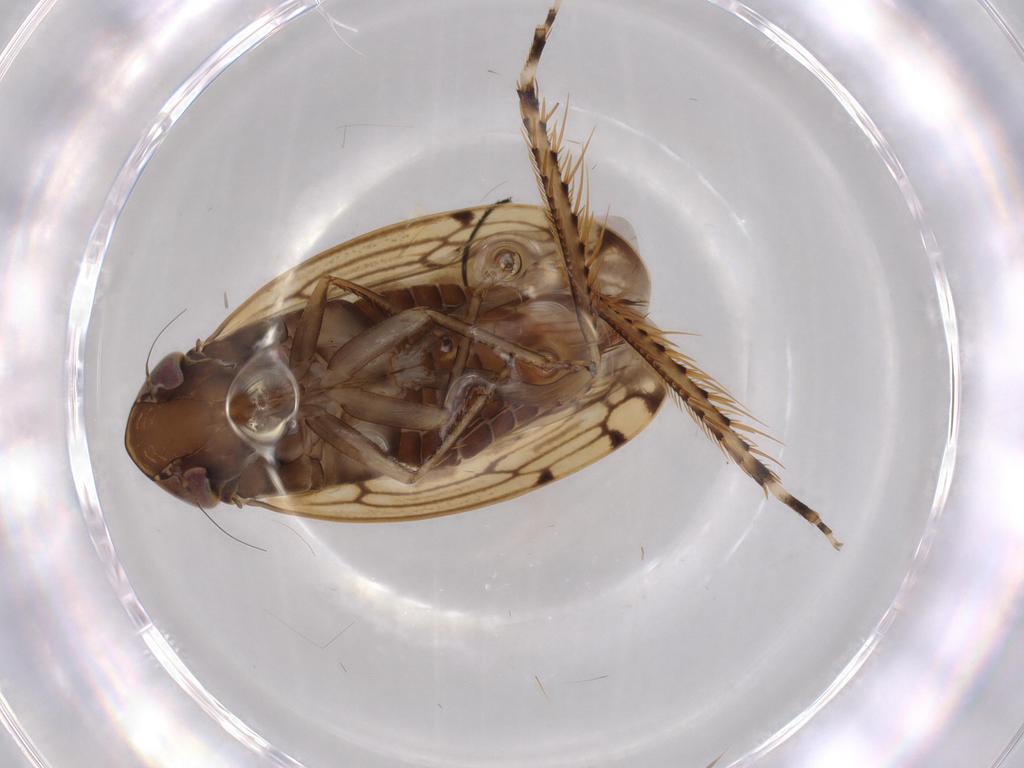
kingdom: Animalia
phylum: Arthropoda
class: Insecta
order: Hemiptera
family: Cicadellidae
